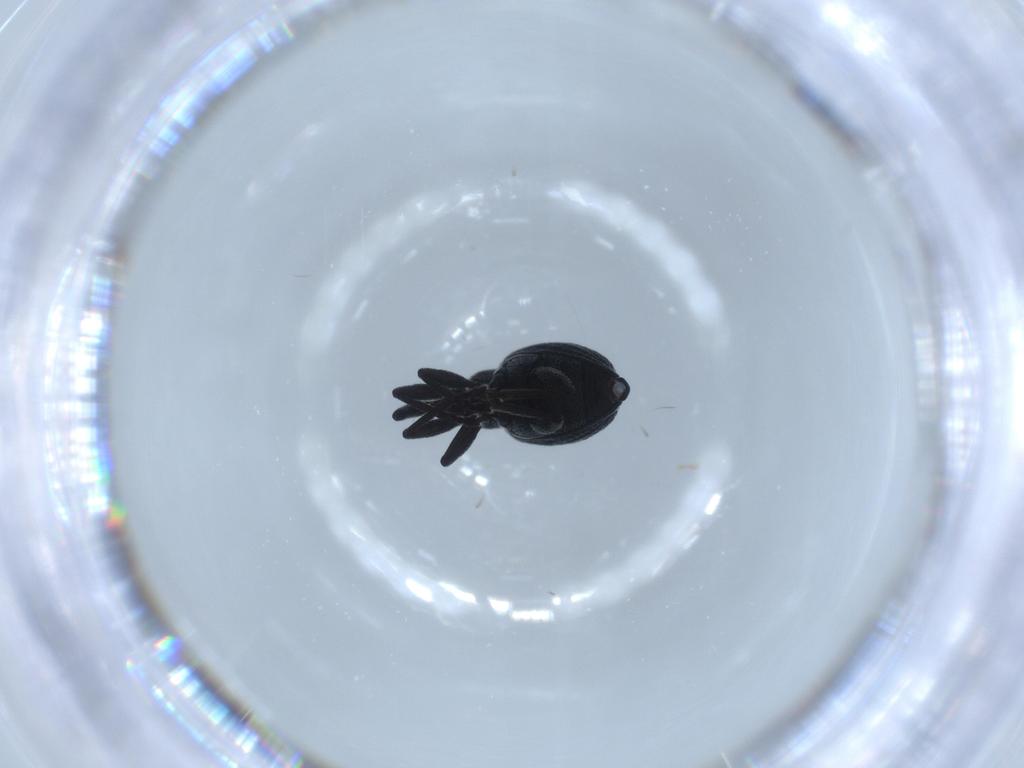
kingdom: Animalia
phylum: Arthropoda
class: Insecta
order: Coleoptera
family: Brentidae
